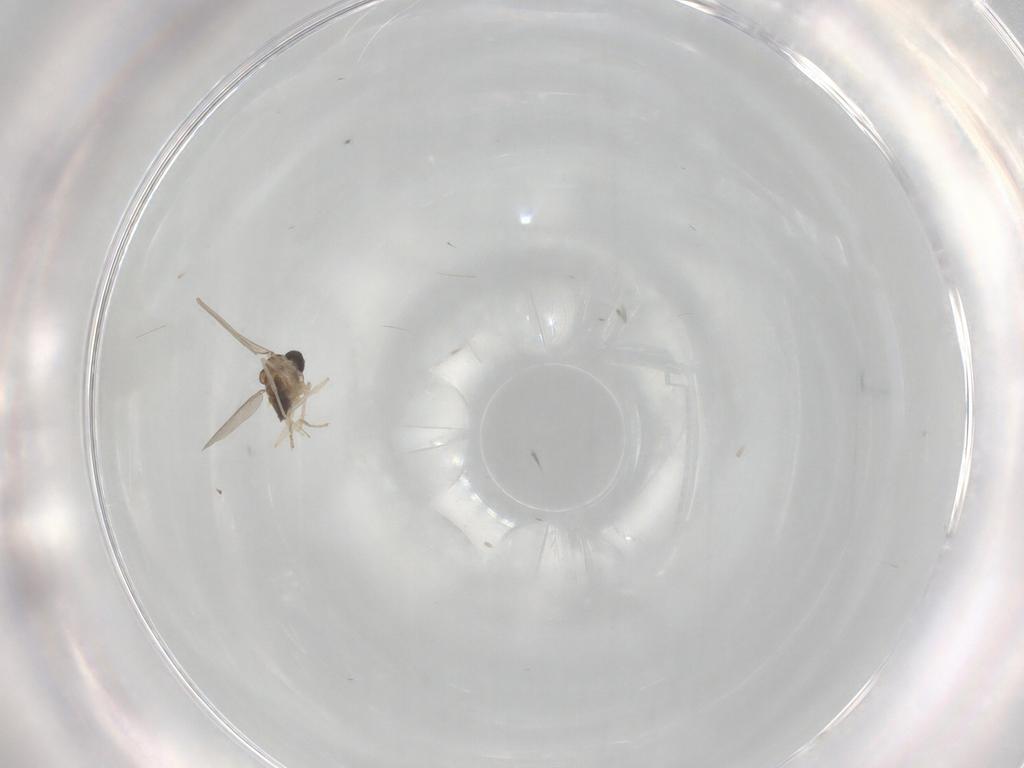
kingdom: Animalia
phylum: Arthropoda
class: Insecta
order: Diptera
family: Cecidomyiidae
